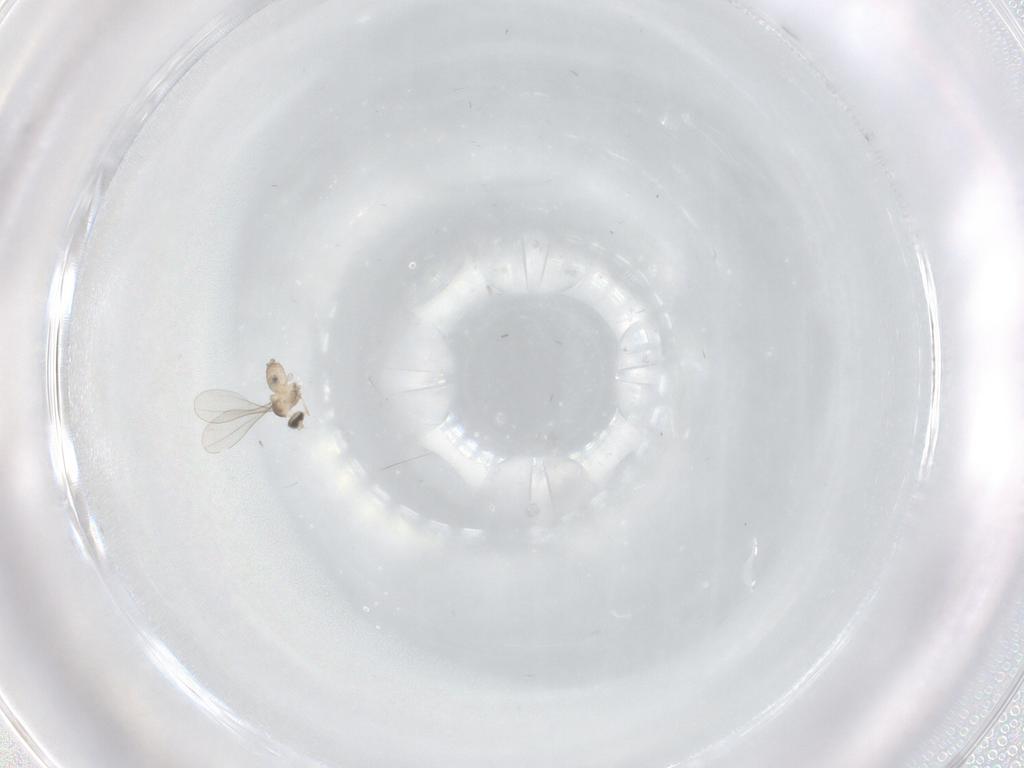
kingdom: Animalia
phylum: Arthropoda
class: Insecta
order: Diptera
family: Cecidomyiidae
